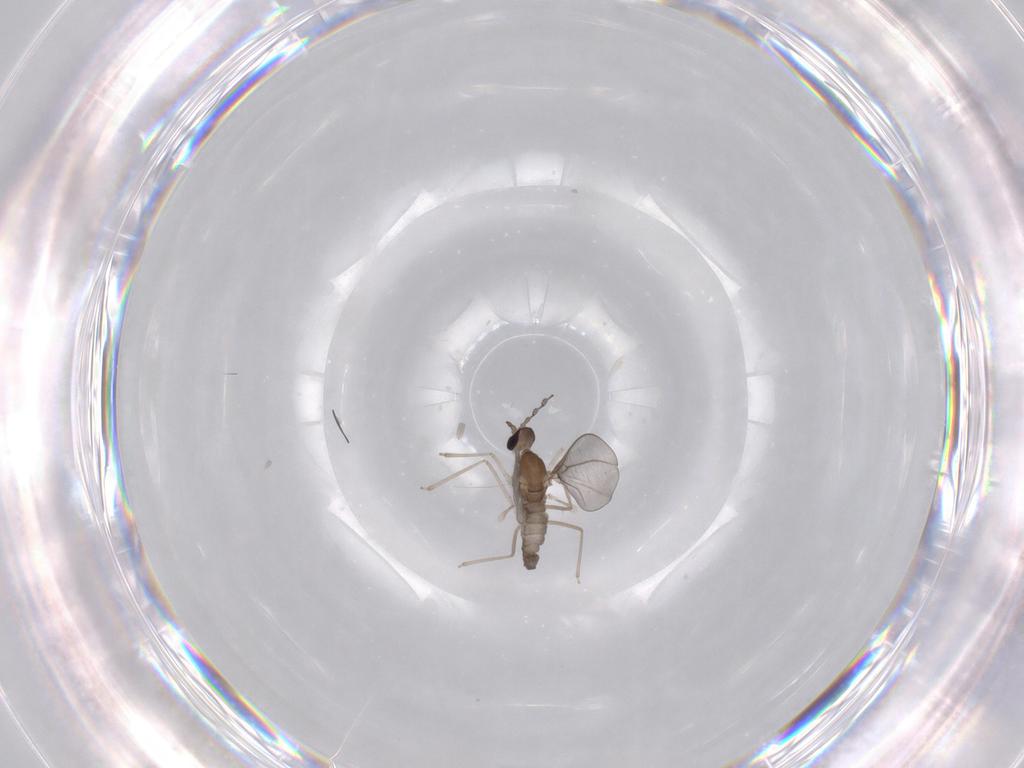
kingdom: Animalia
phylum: Arthropoda
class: Insecta
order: Diptera
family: Cecidomyiidae
